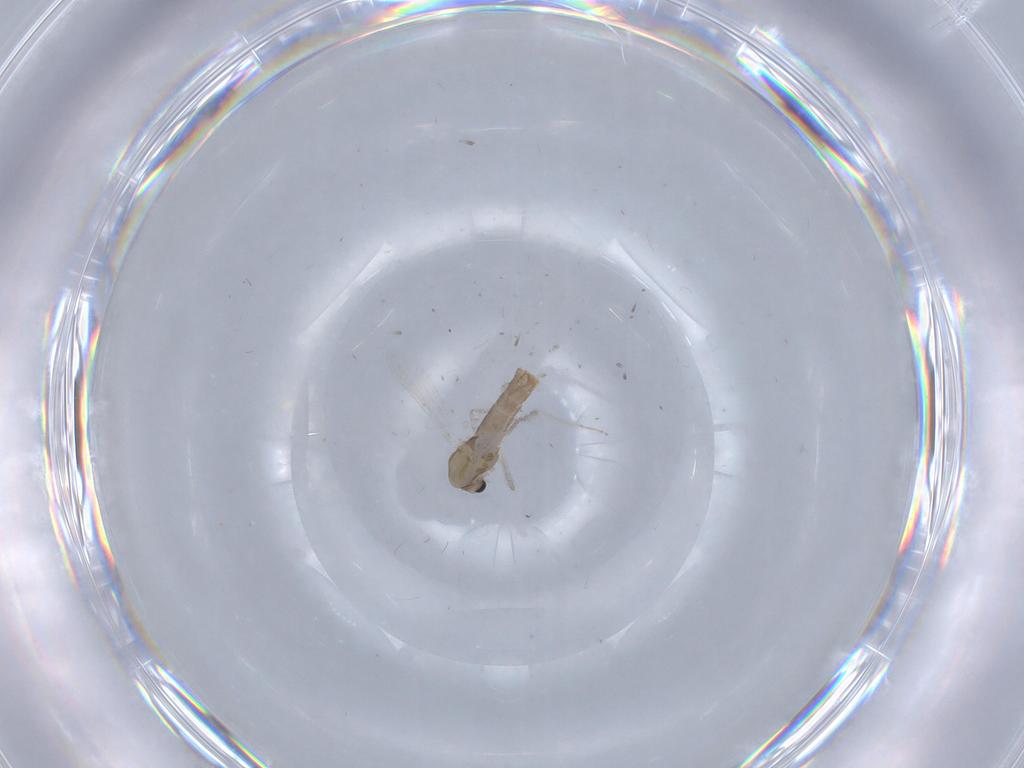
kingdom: Animalia
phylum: Arthropoda
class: Insecta
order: Diptera
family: Chironomidae
